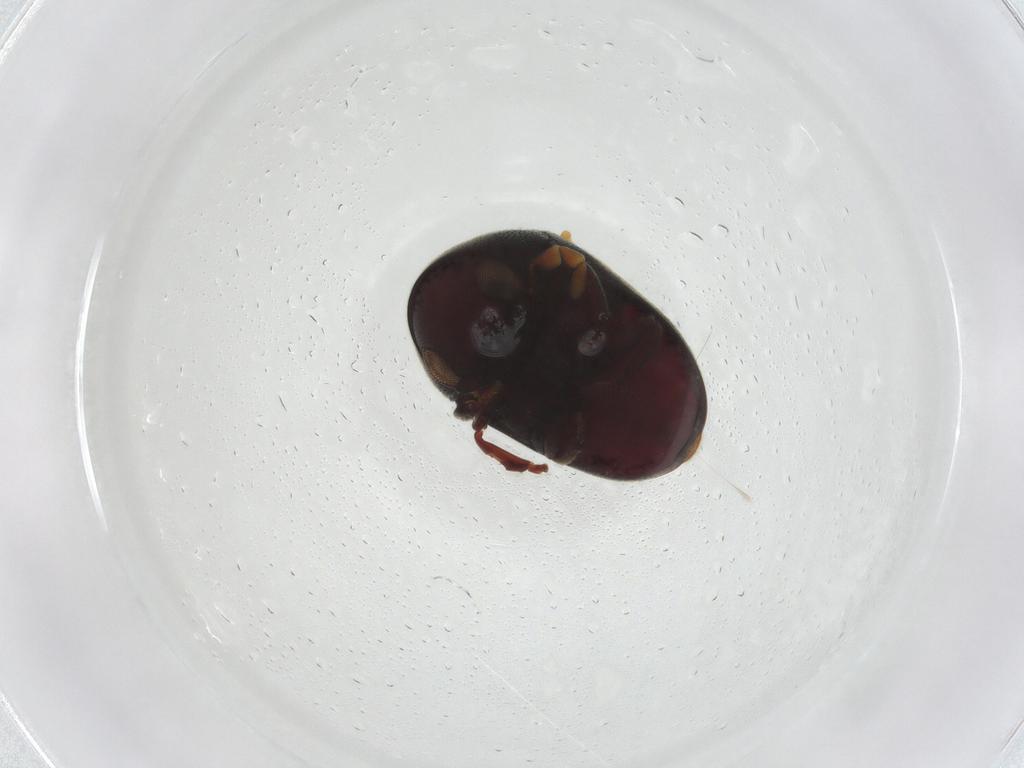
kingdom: Animalia
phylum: Arthropoda
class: Insecta
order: Coleoptera
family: Ptinidae
